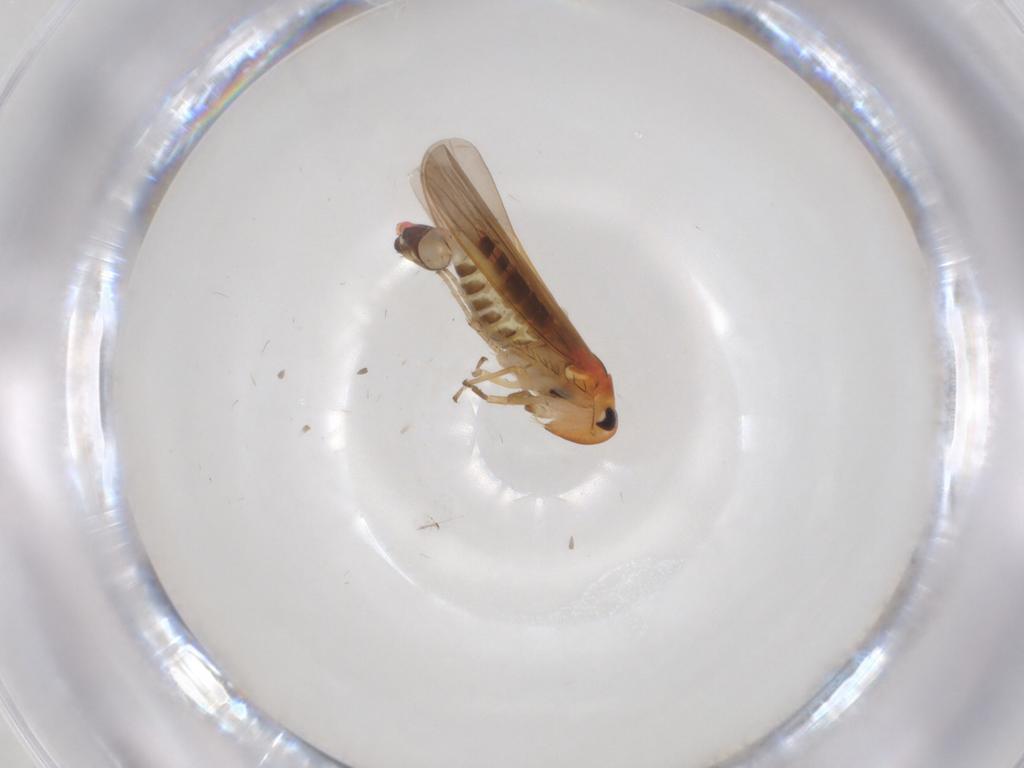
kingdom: Animalia
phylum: Arthropoda
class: Insecta
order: Hemiptera
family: Cicadellidae
